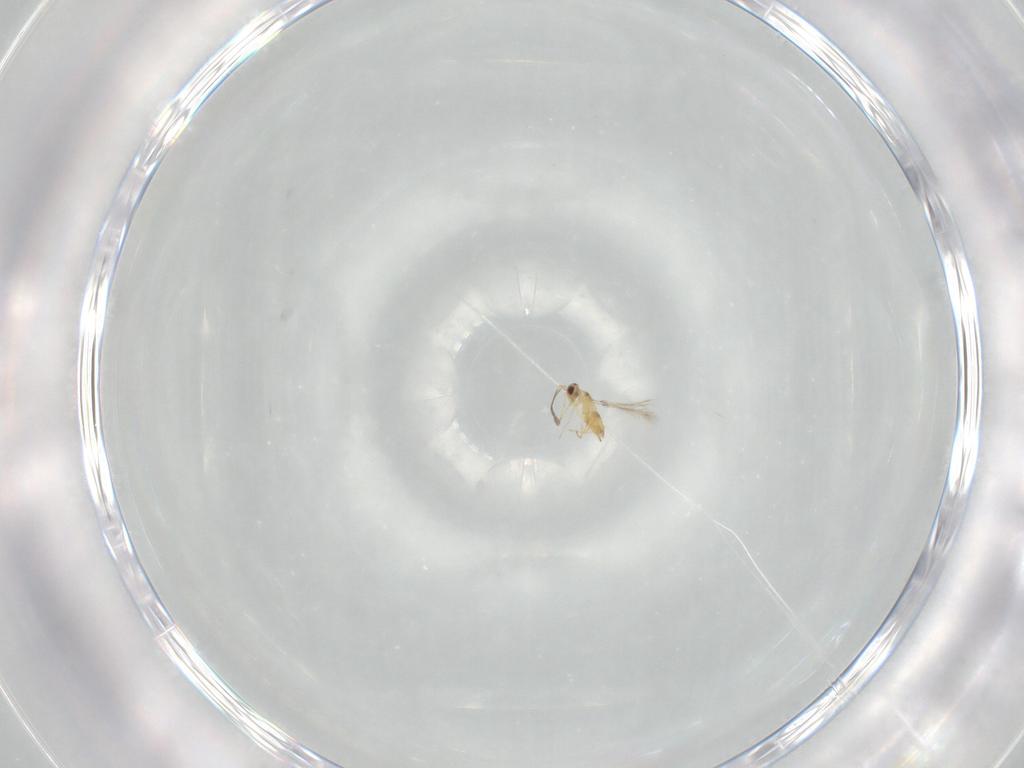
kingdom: Animalia
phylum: Arthropoda
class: Insecta
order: Hymenoptera
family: Mymaridae
